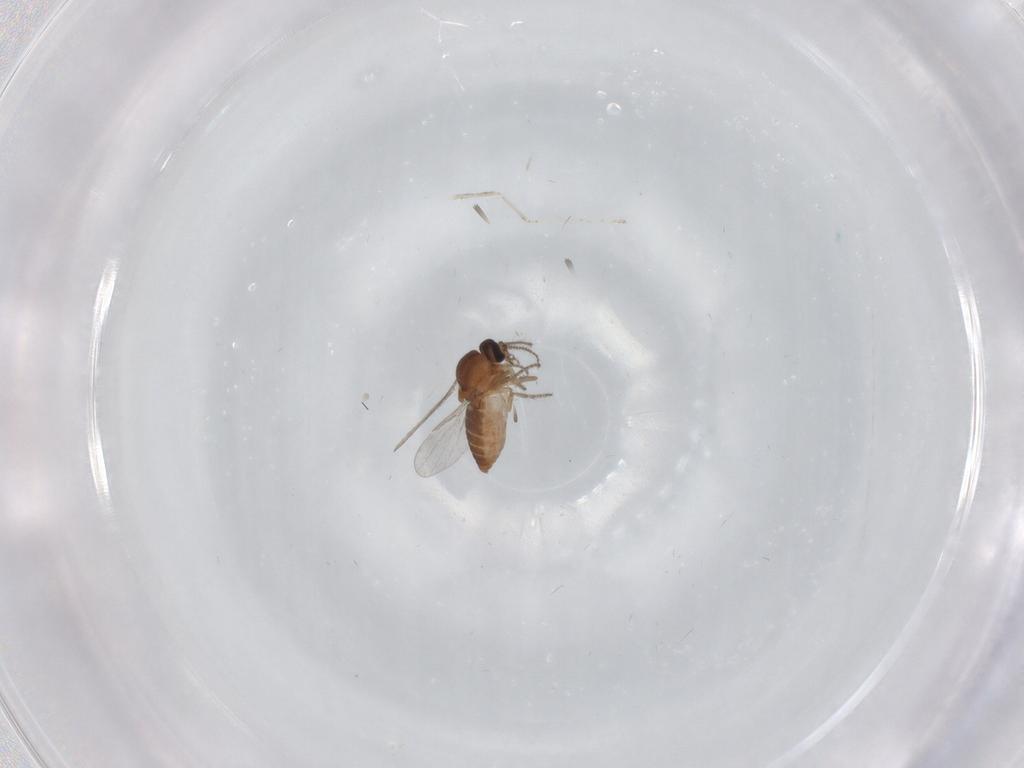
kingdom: Animalia
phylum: Arthropoda
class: Insecta
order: Diptera
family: Ceratopogonidae
